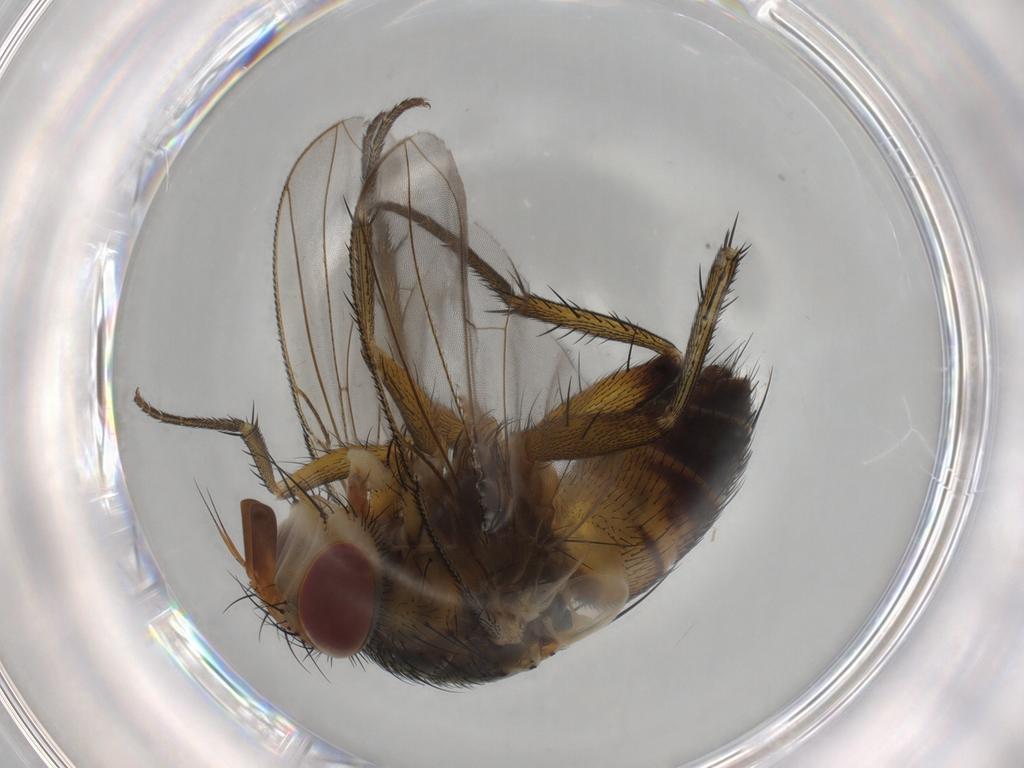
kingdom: Animalia
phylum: Arthropoda
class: Insecta
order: Diptera
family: Chironomidae
